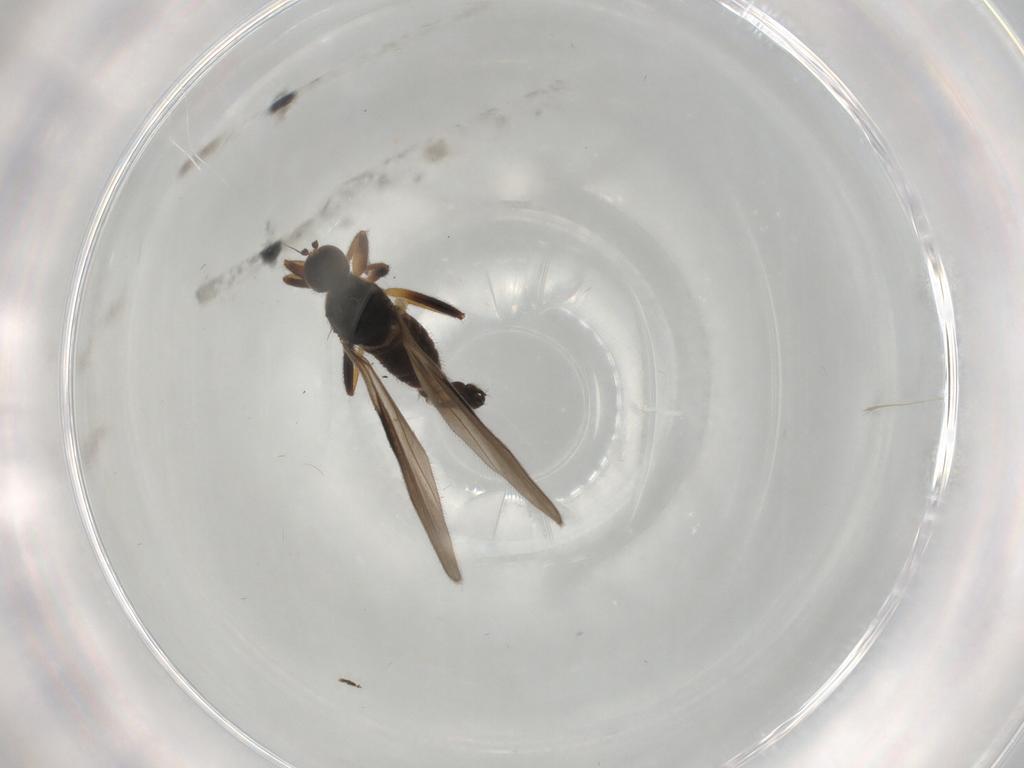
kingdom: Animalia
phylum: Arthropoda
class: Insecta
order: Diptera
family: Hybotidae
